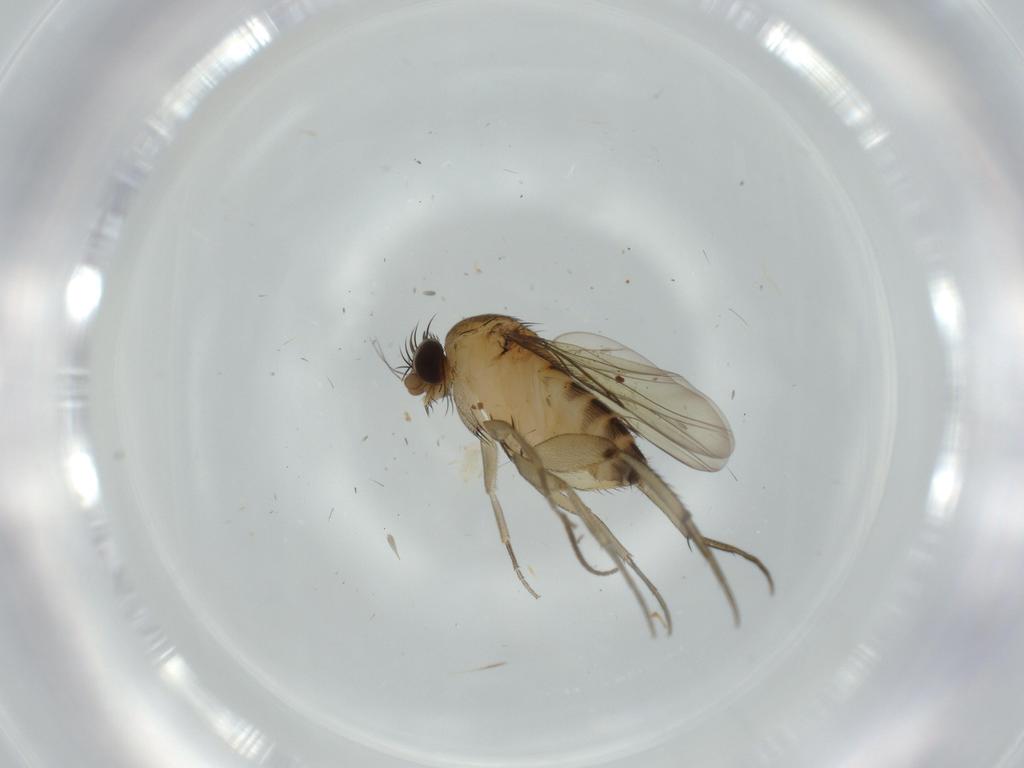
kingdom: Animalia
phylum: Arthropoda
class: Insecta
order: Diptera
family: Phoridae
